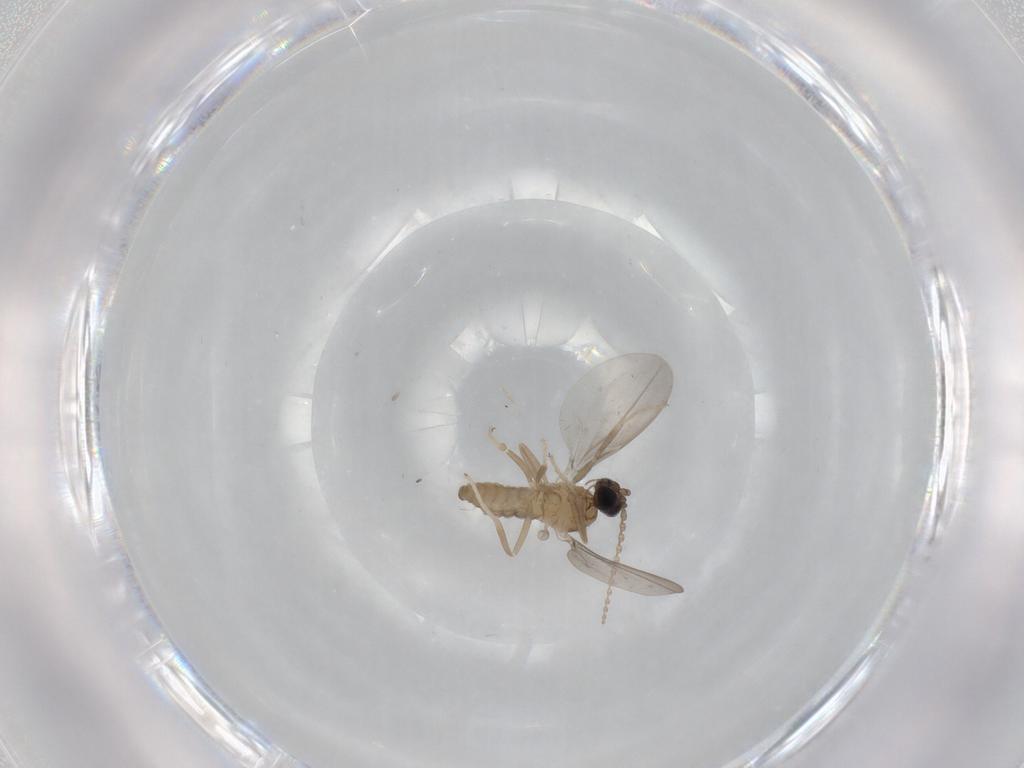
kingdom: Animalia
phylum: Arthropoda
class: Insecta
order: Diptera
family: Cecidomyiidae
